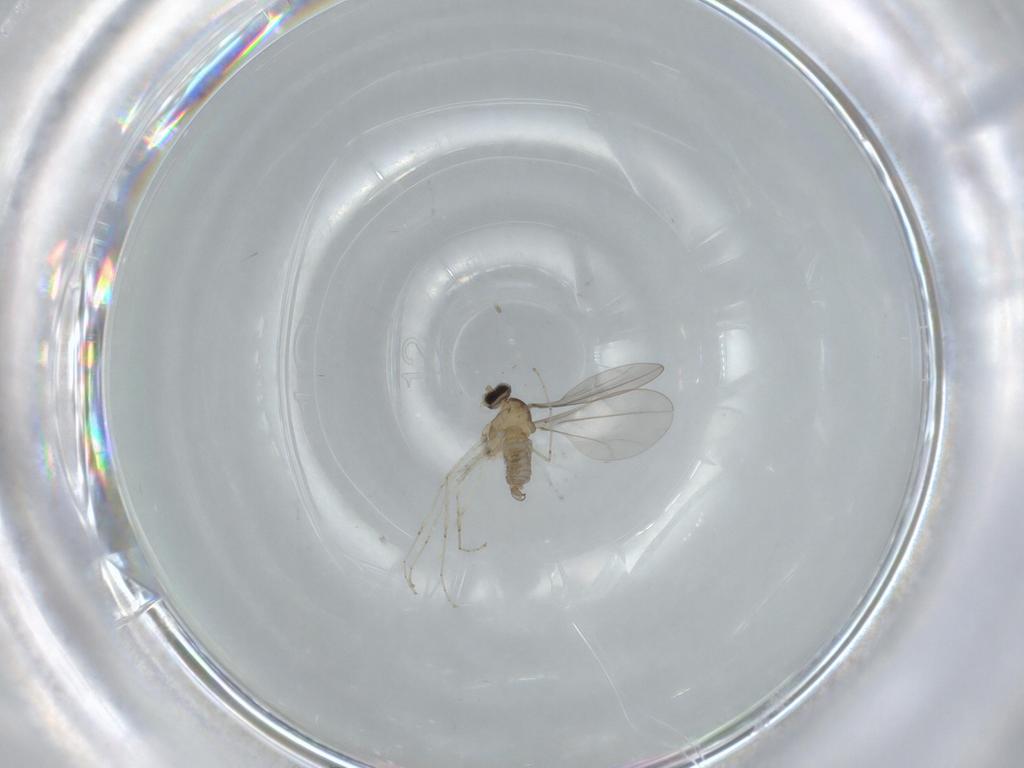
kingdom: Animalia
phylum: Arthropoda
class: Insecta
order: Diptera
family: Cecidomyiidae
